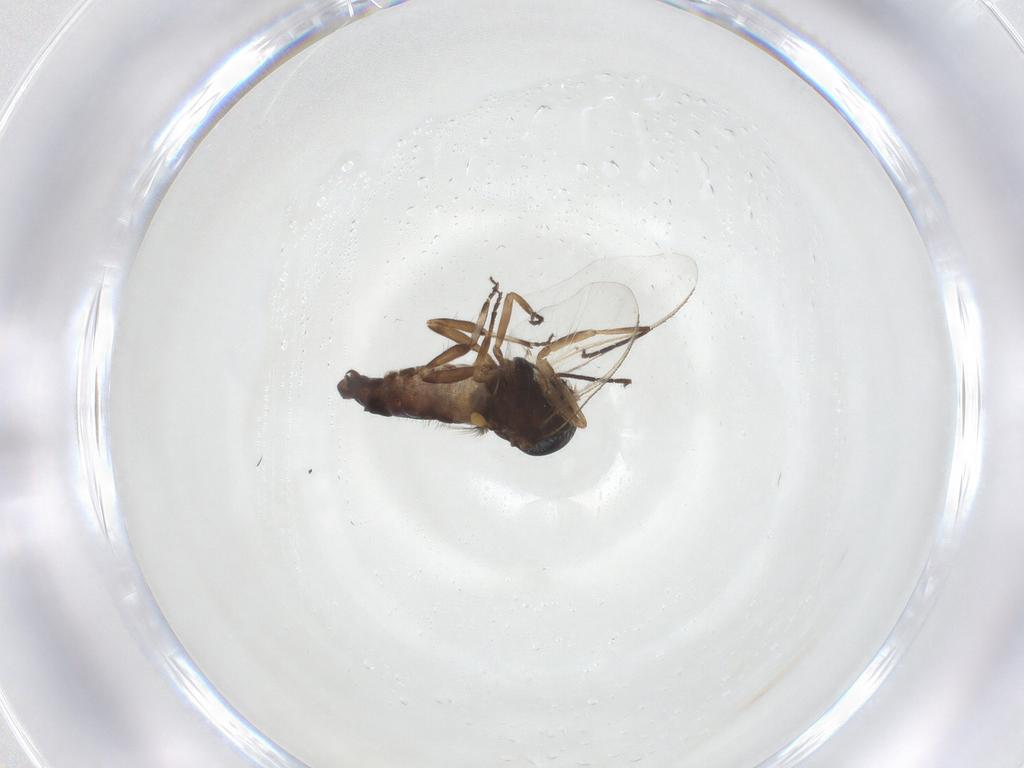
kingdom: Animalia
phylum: Arthropoda
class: Insecta
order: Diptera
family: Simuliidae
